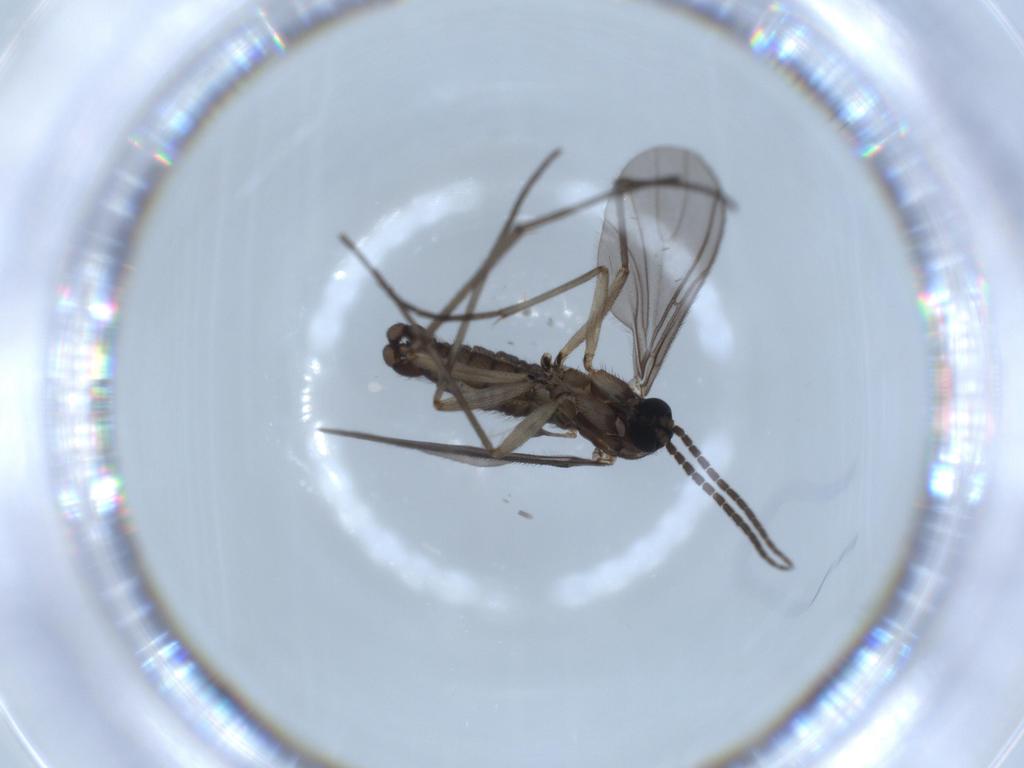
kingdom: Animalia
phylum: Arthropoda
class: Insecta
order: Diptera
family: Sciaridae
